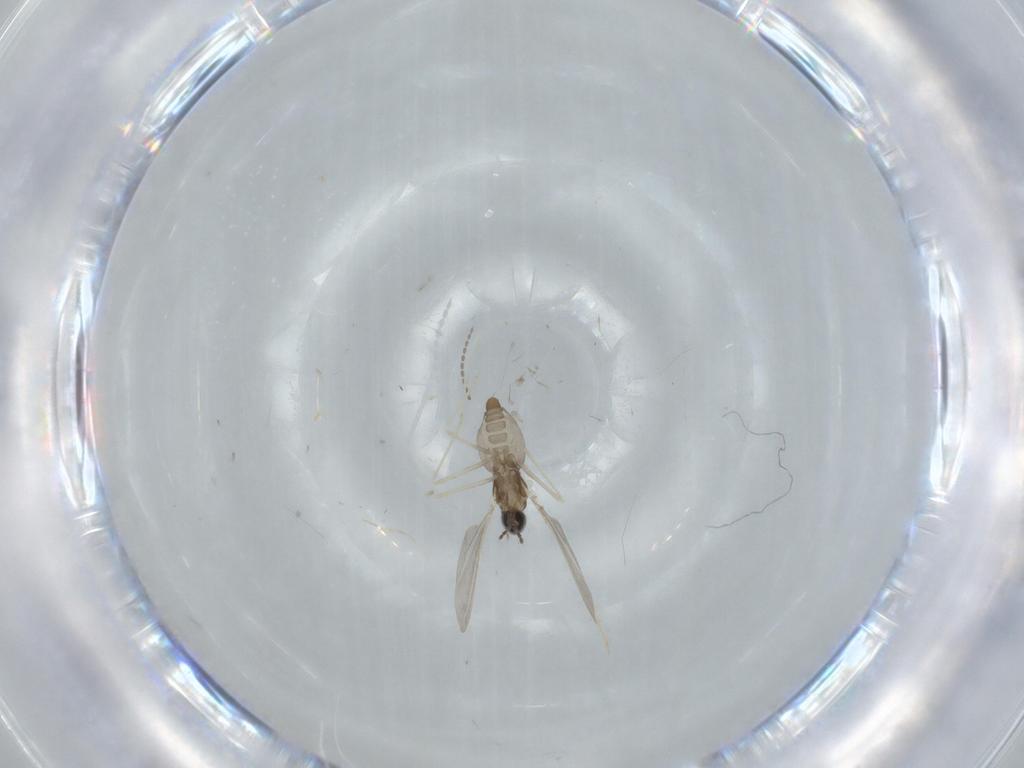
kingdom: Animalia
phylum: Arthropoda
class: Insecta
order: Diptera
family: Cecidomyiidae
